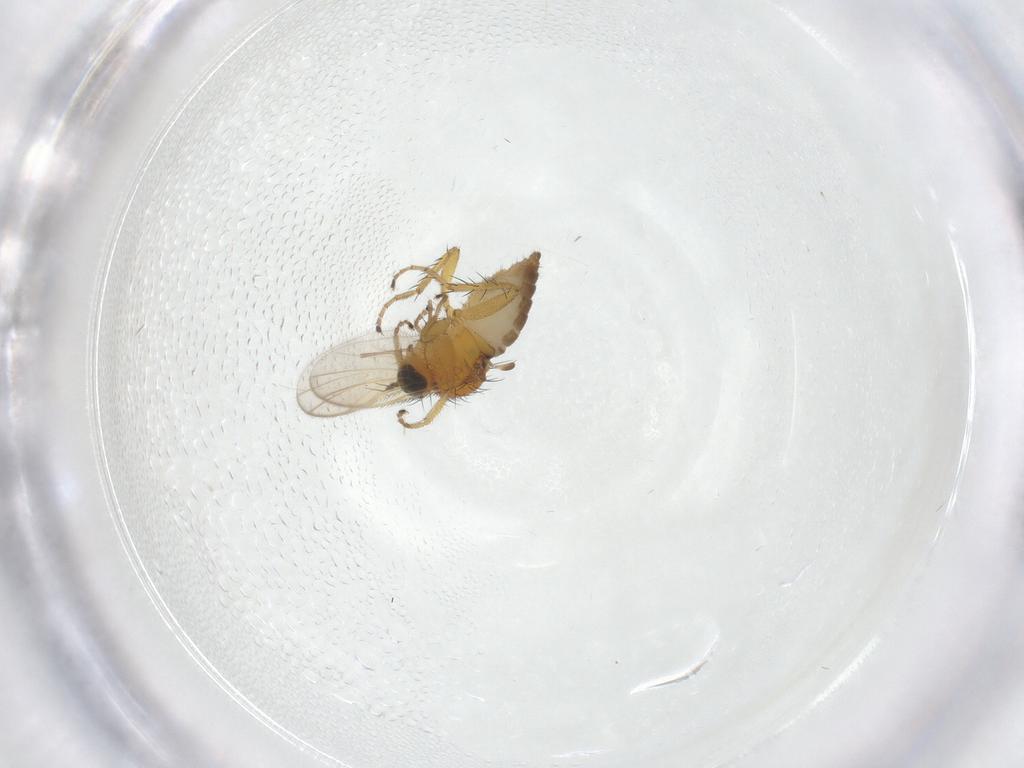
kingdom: Animalia
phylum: Arthropoda
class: Insecta
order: Diptera
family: Hybotidae
